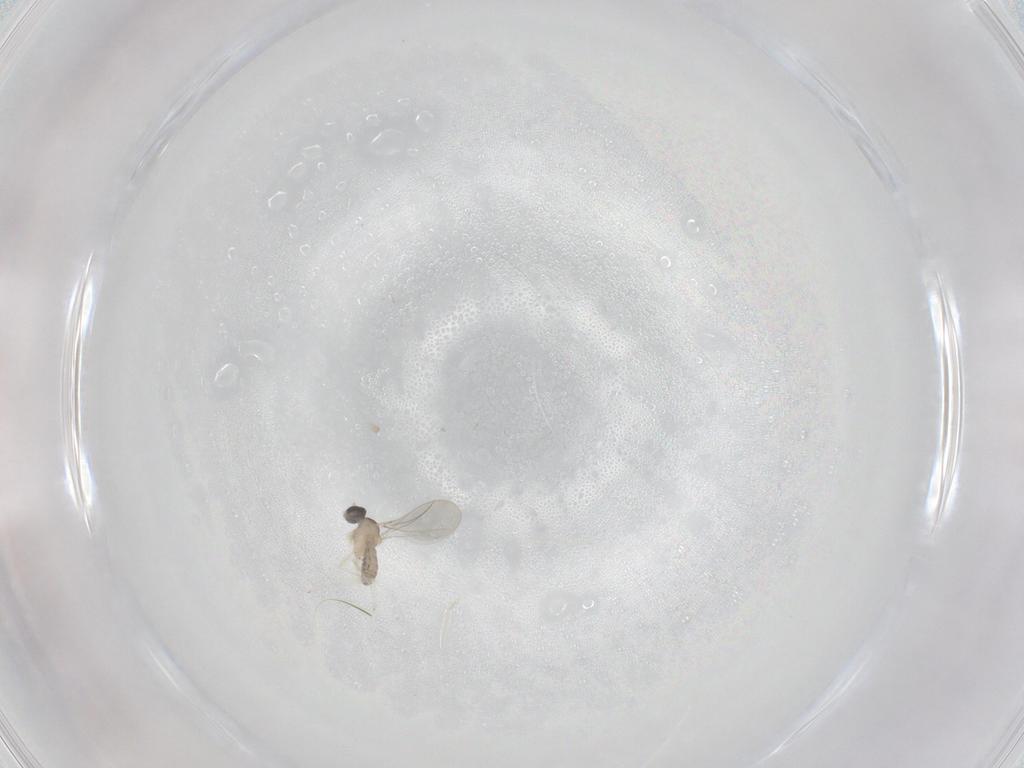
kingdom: Animalia
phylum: Arthropoda
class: Insecta
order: Diptera
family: Cecidomyiidae
